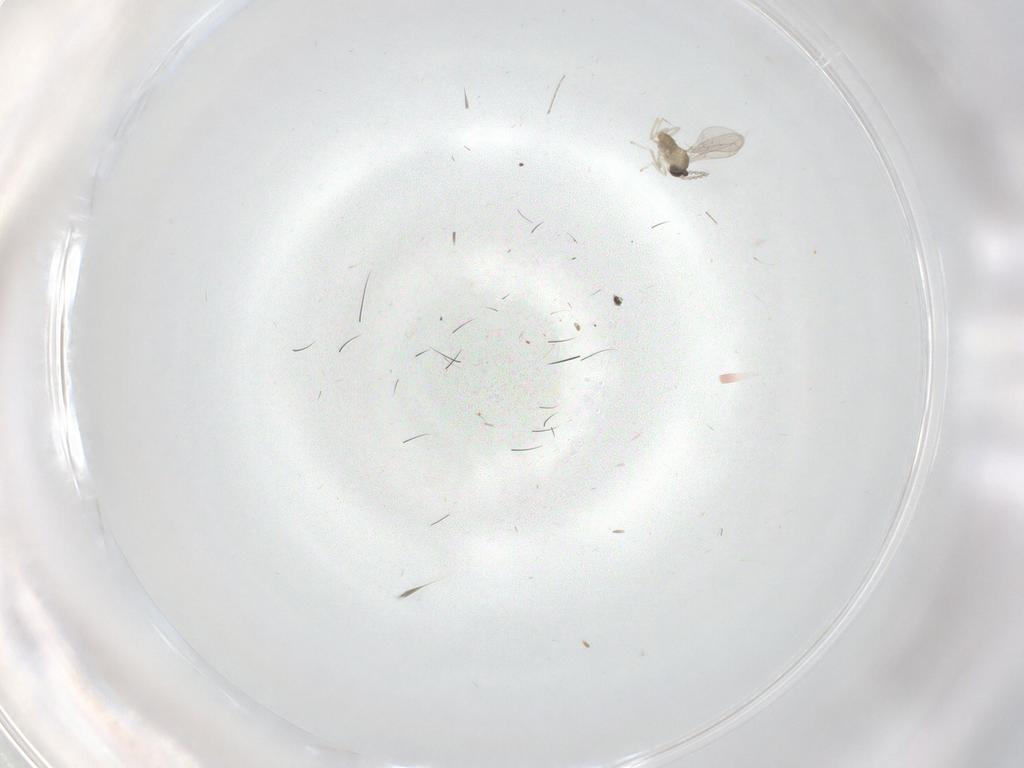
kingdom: Animalia
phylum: Arthropoda
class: Insecta
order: Diptera
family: Cecidomyiidae
